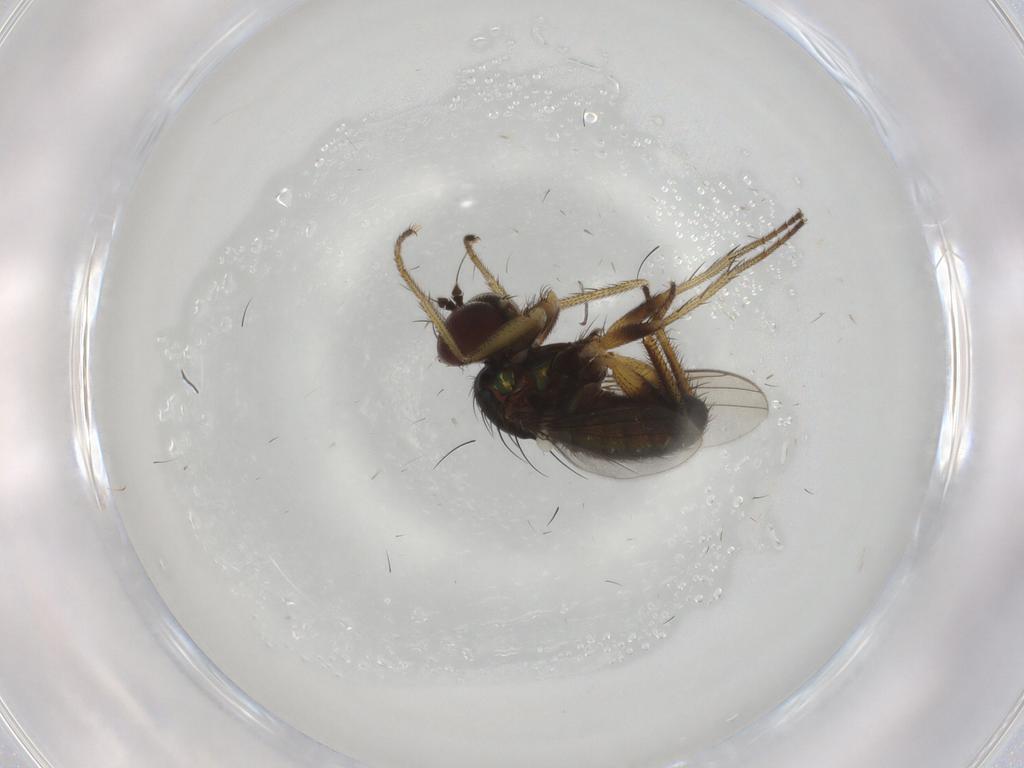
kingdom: Animalia
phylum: Arthropoda
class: Insecta
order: Diptera
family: Dolichopodidae
